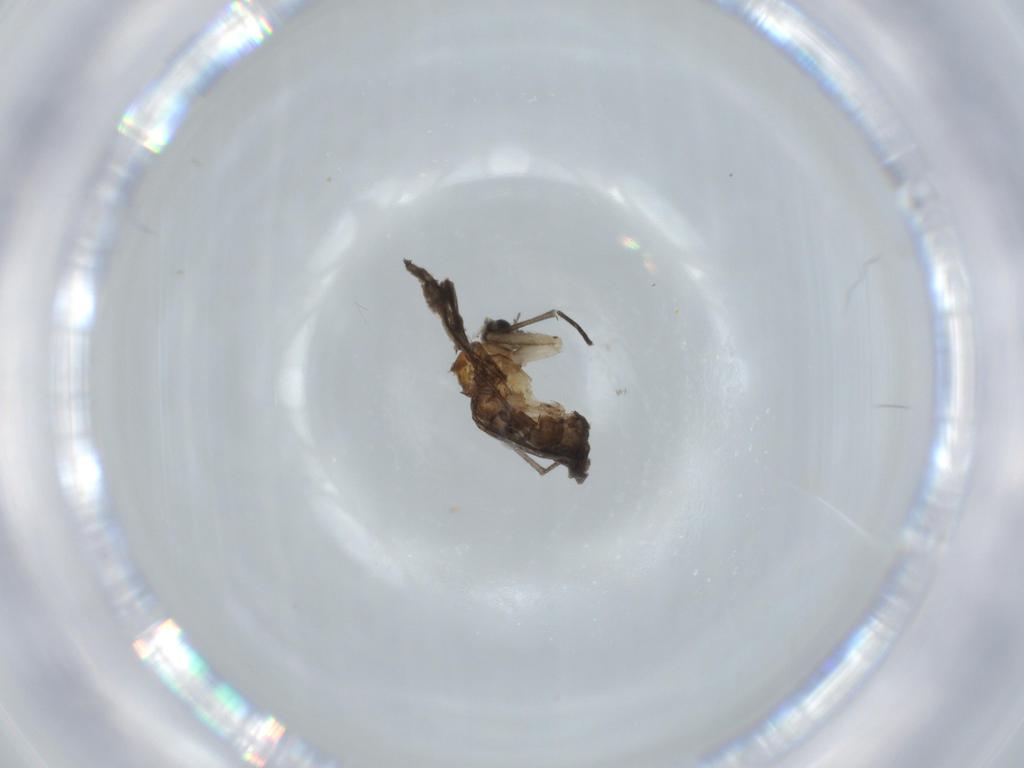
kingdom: Animalia
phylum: Arthropoda
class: Insecta
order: Diptera
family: Cecidomyiidae
